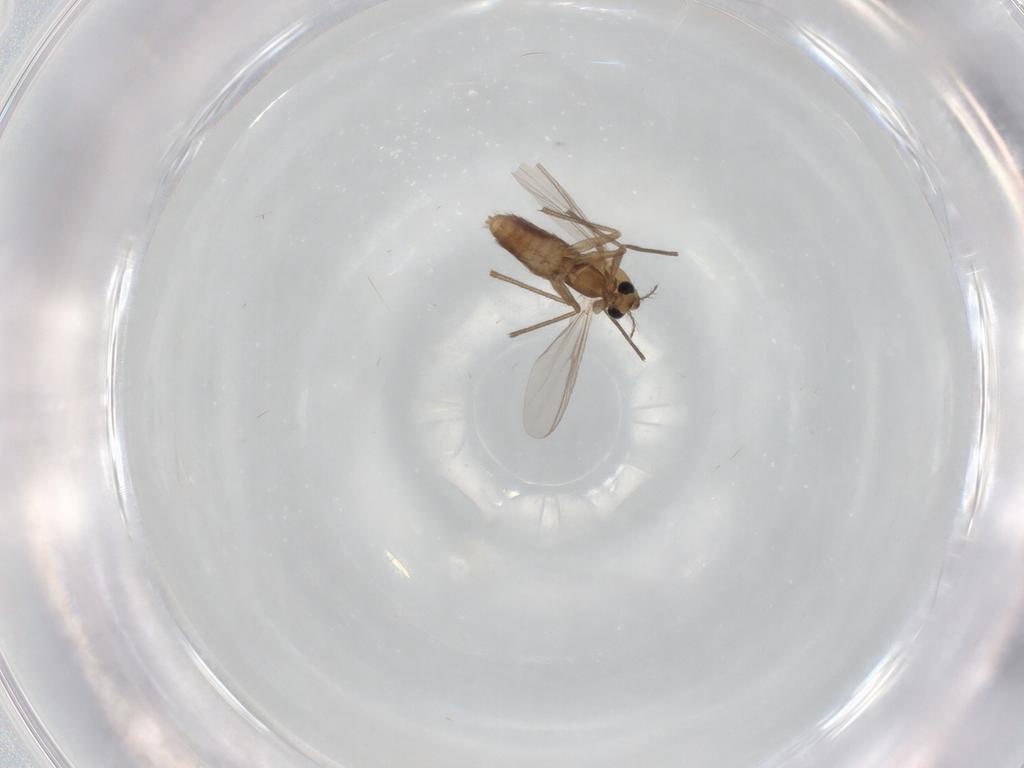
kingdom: Animalia
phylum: Arthropoda
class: Insecta
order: Diptera
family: Chironomidae
